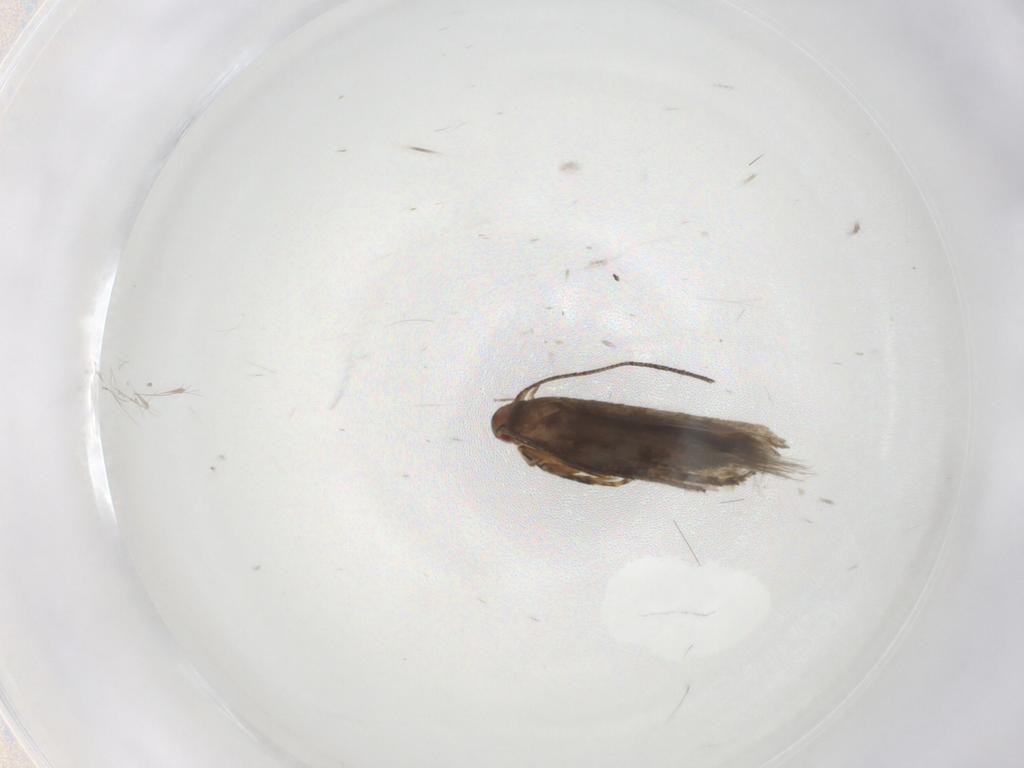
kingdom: Animalia
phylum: Arthropoda
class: Insecta
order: Lepidoptera
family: Momphidae
